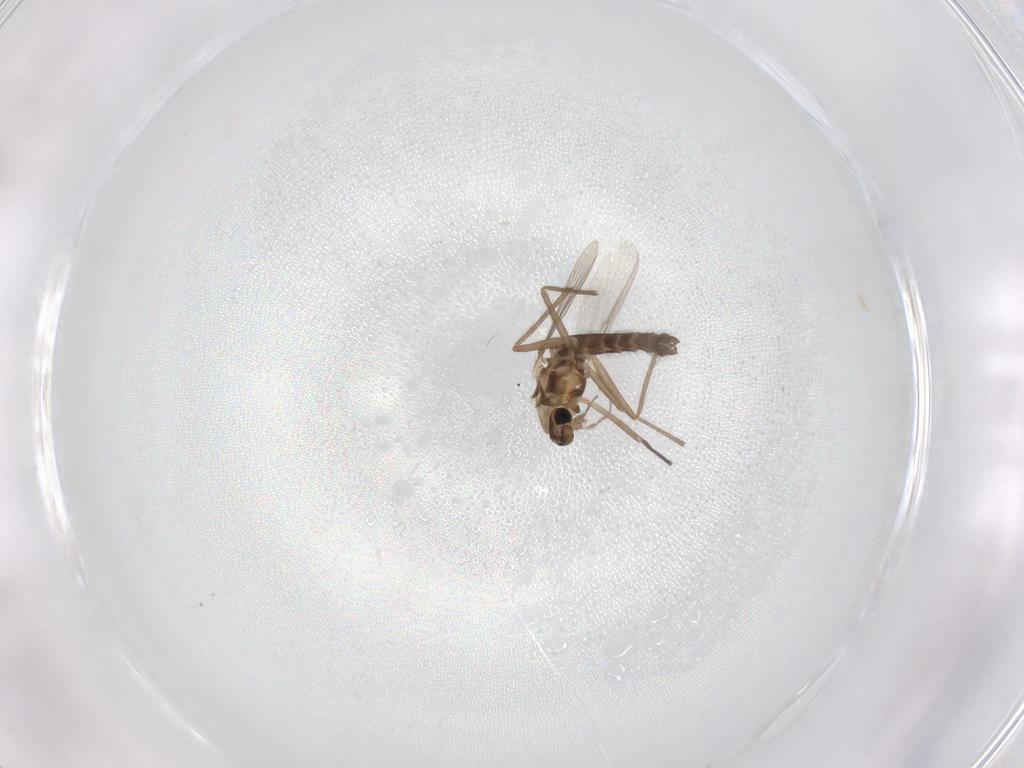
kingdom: Animalia
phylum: Arthropoda
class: Insecta
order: Diptera
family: Chironomidae
